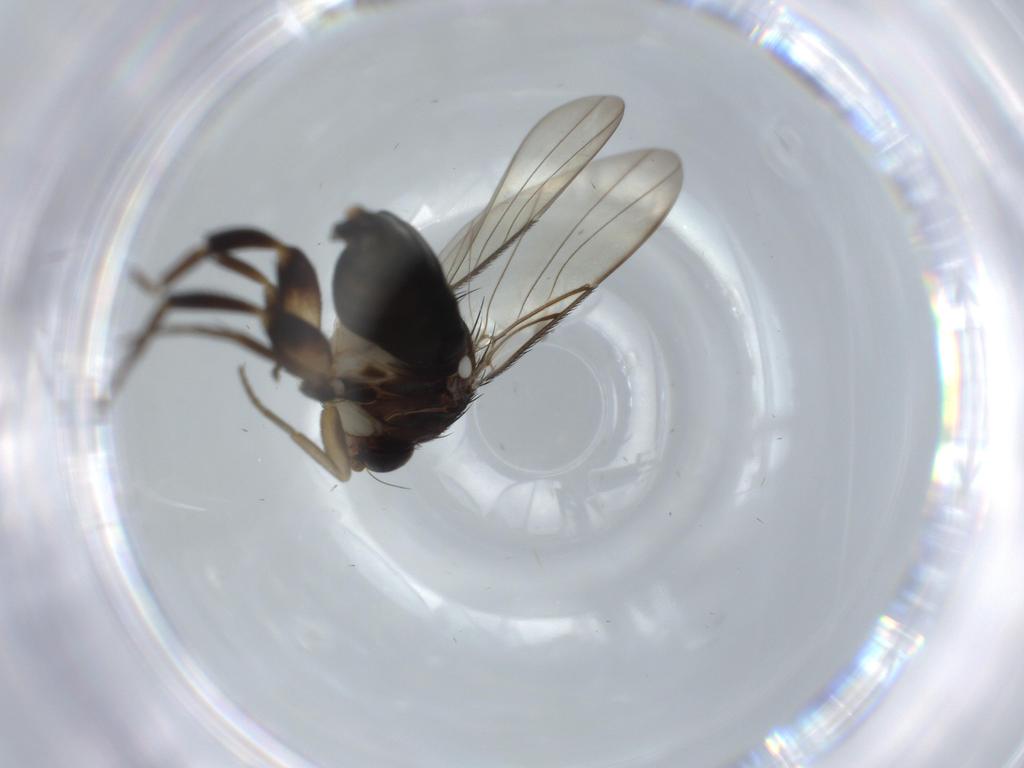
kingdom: Animalia
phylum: Arthropoda
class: Insecta
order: Diptera
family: Phoridae
